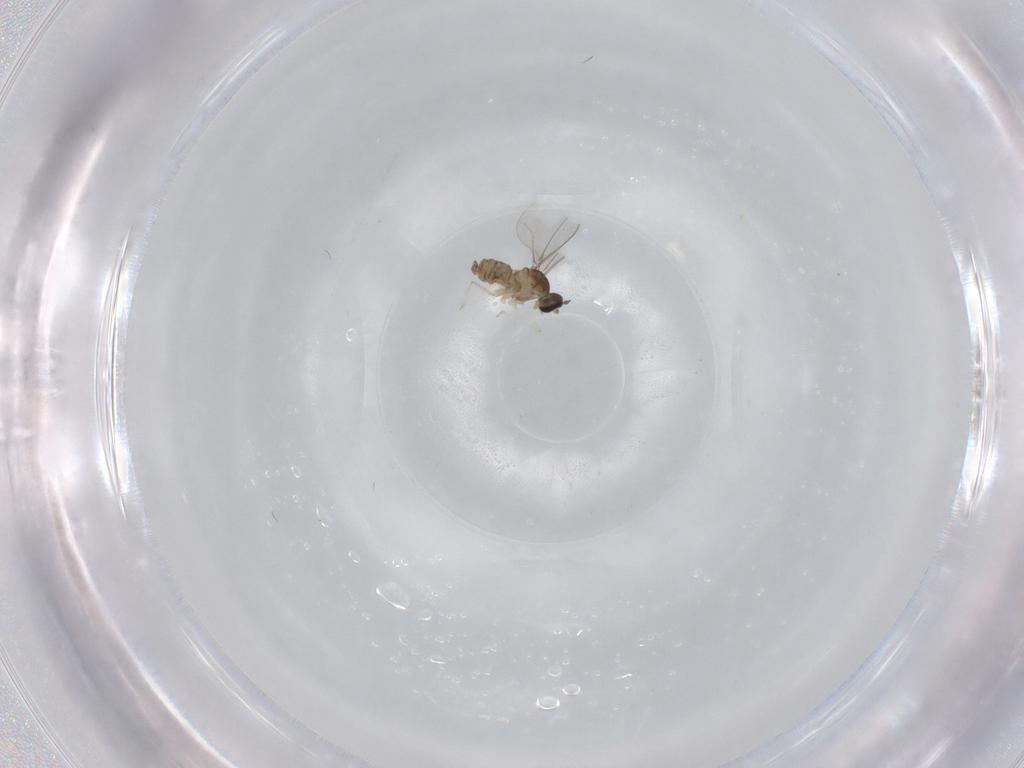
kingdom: Animalia
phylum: Arthropoda
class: Insecta
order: Diptera
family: Cecidomyiidae
